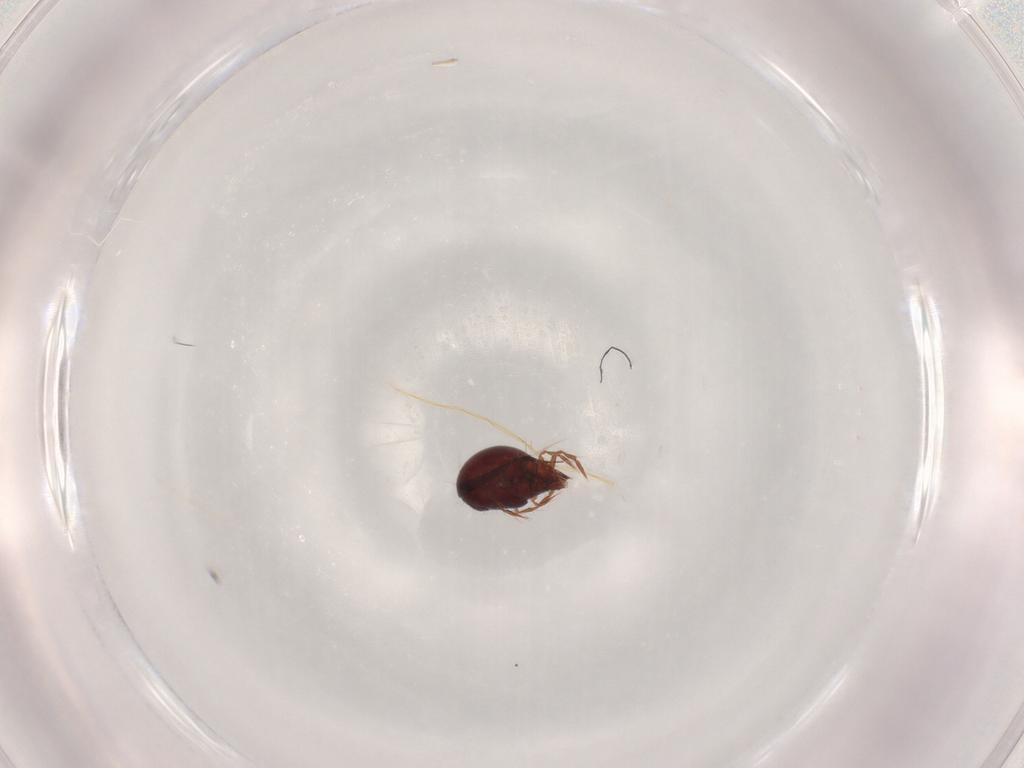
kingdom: Animalia
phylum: Arthropoda
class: Arachnida
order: Sarcoptiformes
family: Ceratoppiidae
